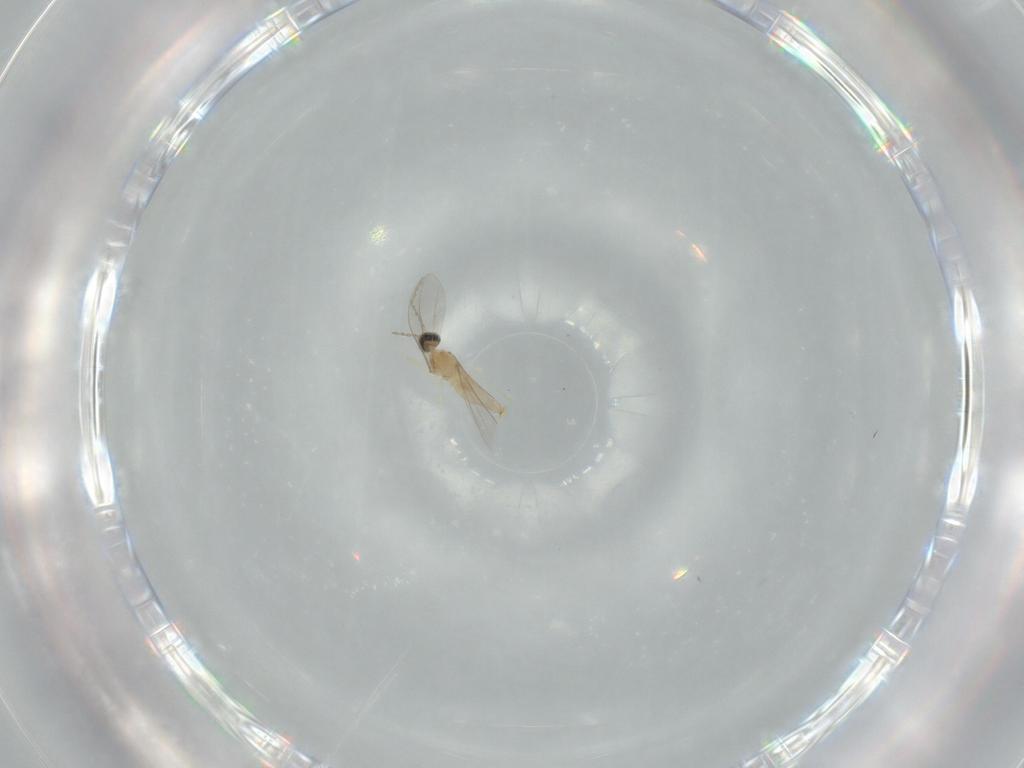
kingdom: Animalia
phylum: Arthropoda
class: Insecta
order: Diptera
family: Cecidomyiidae
